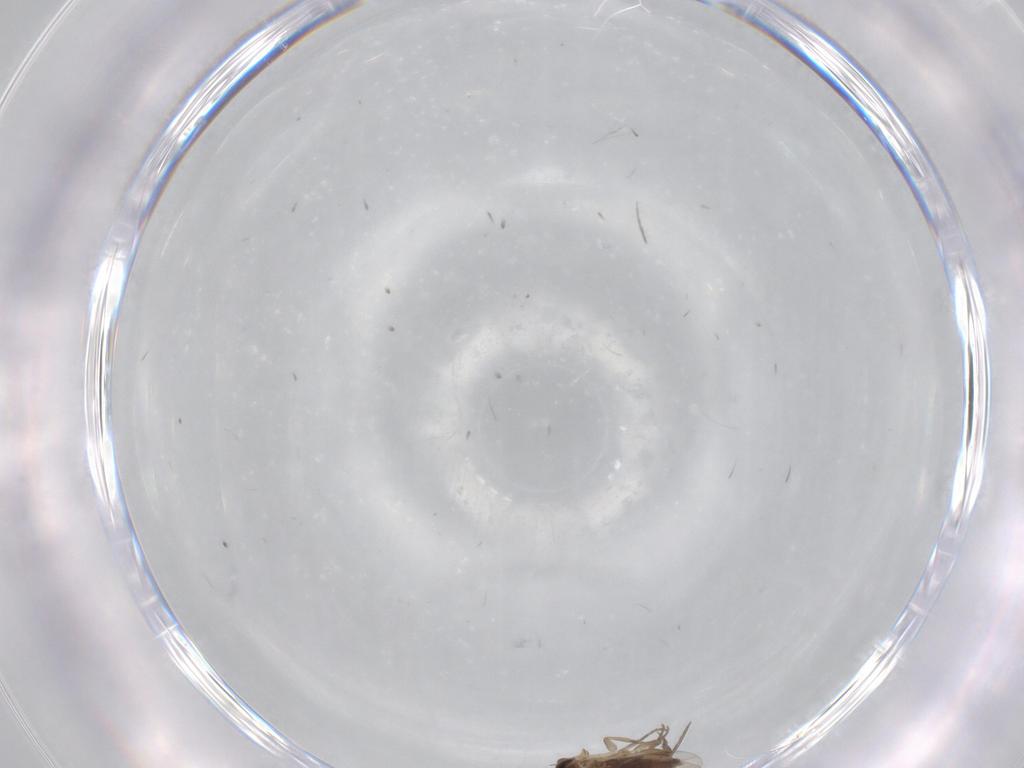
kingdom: Animalia
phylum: Arthropoda
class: Insecta
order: Diptera
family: Phoridae
